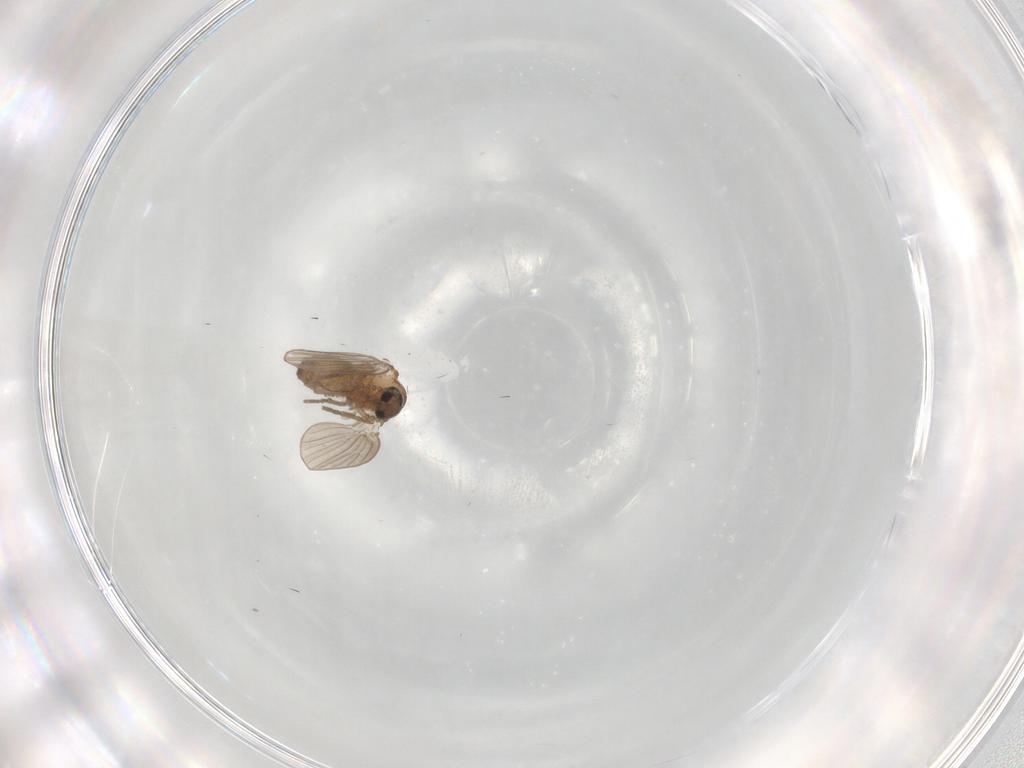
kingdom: Animalia
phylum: Arthropoda
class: Insecta
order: Diptera
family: Psychodidae
